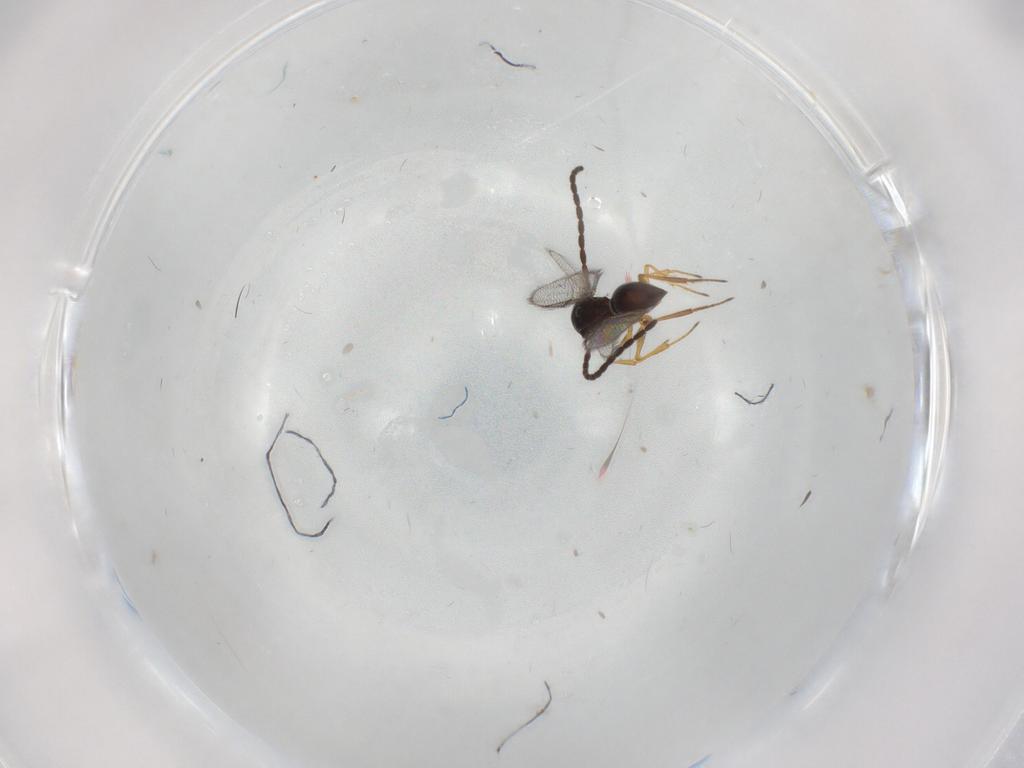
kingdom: Animalia
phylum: Arthropoda
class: Insecta
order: Hymenoptera
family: Figitidae
